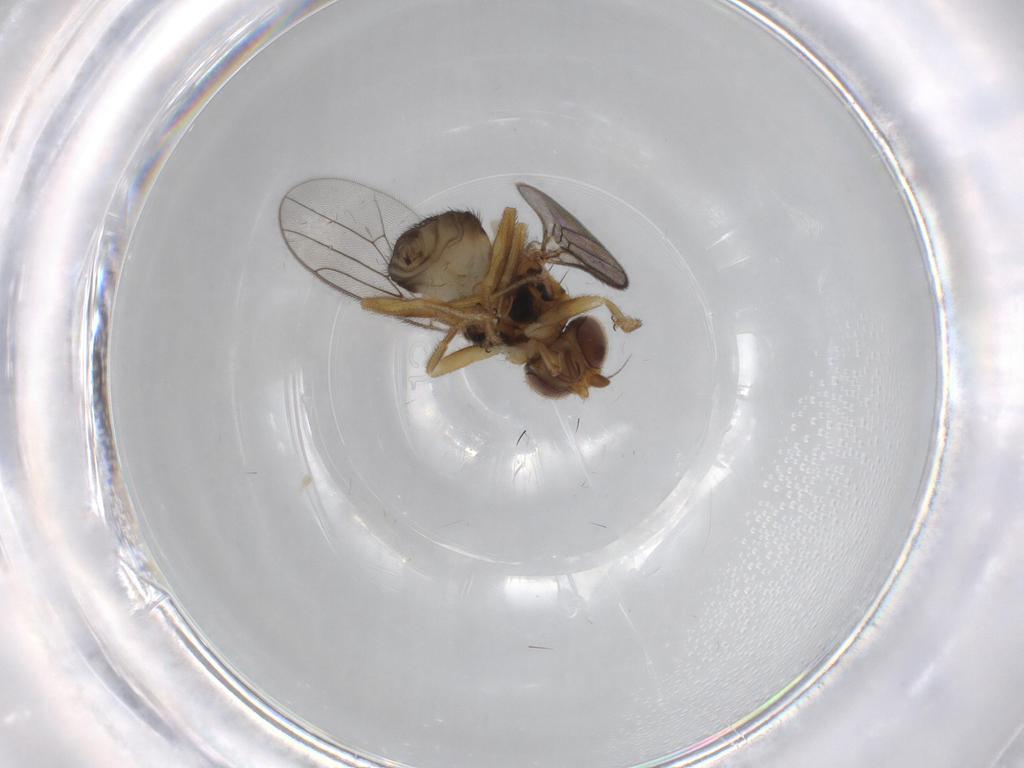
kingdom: Animalia
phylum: Arthropoda
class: Insecta
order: Diptera
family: Chloropidae
